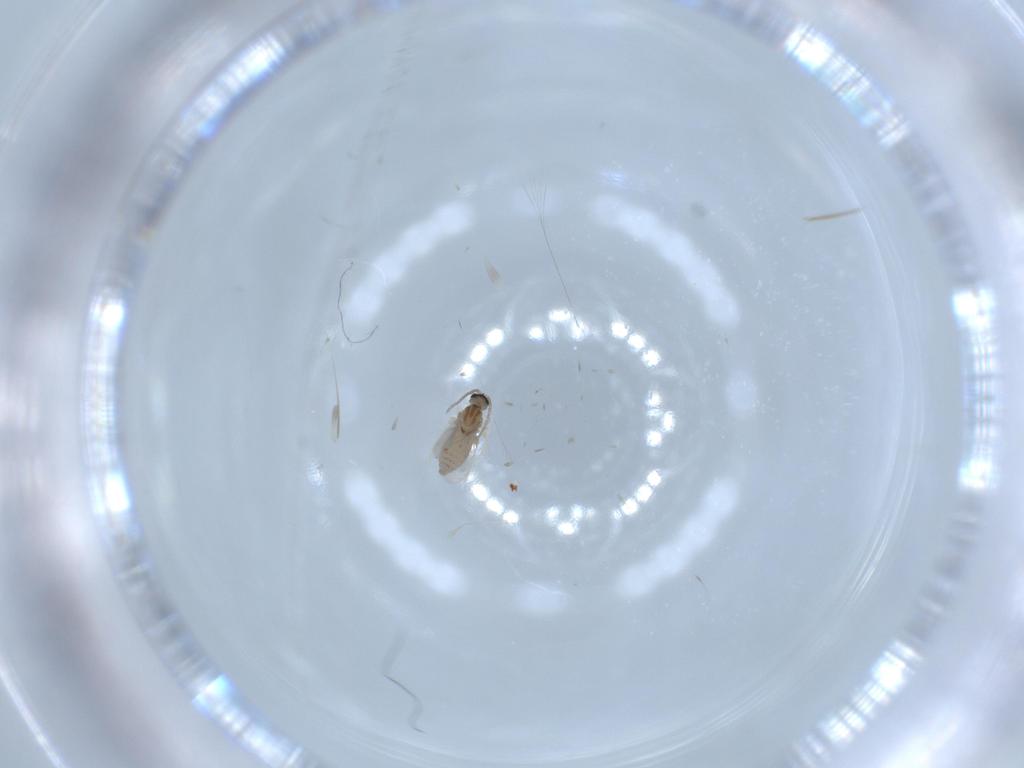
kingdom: Animalia
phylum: Arthropoda
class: Insecta
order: Diptera
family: Cecidomyiidae
